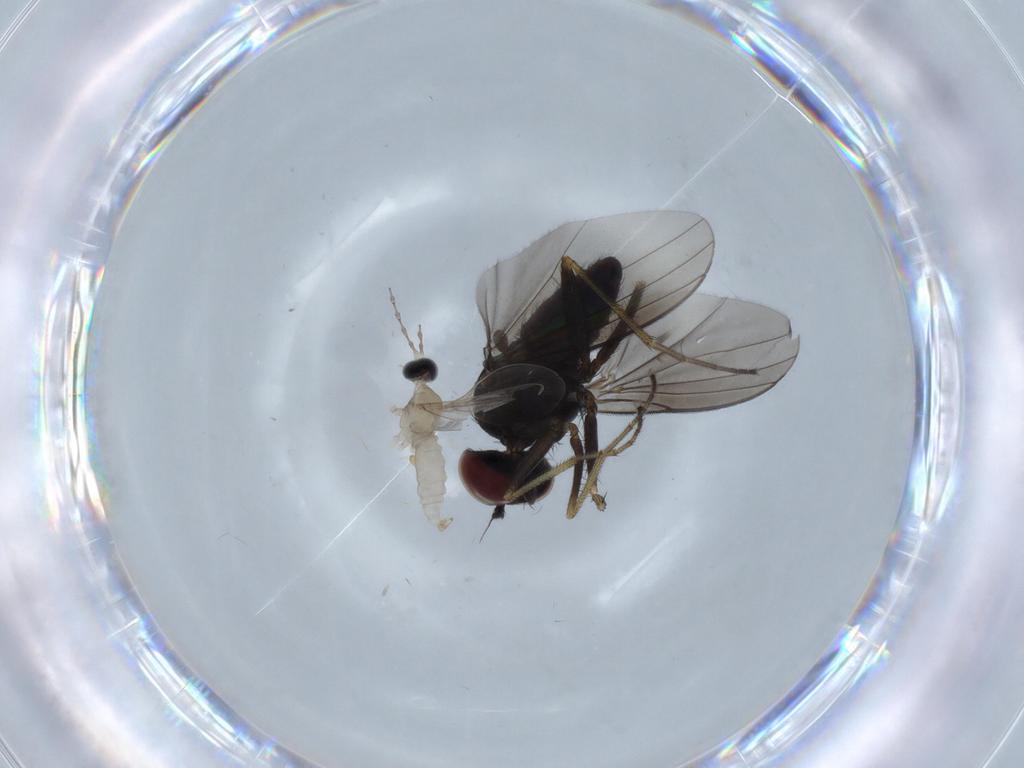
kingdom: Animalia
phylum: Arthropoda
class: Insecta
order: Diptera
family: Dolichopodidae
